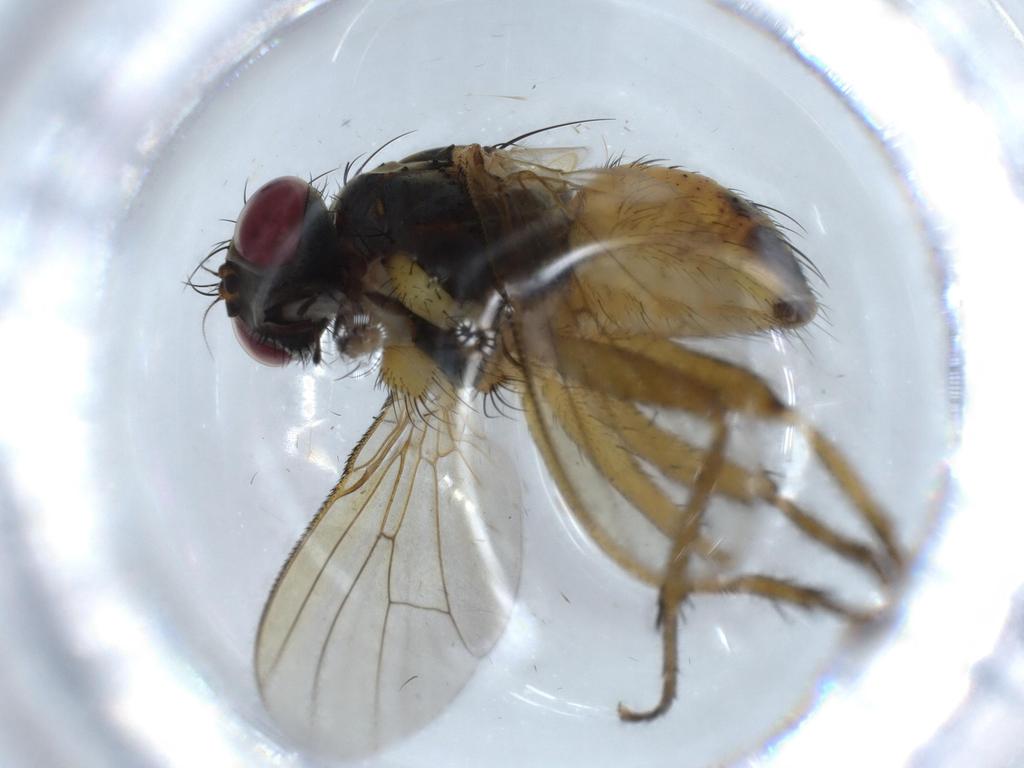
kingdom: Animalia
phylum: Arthropoda
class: Insecta
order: Diptera
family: Muscidae
